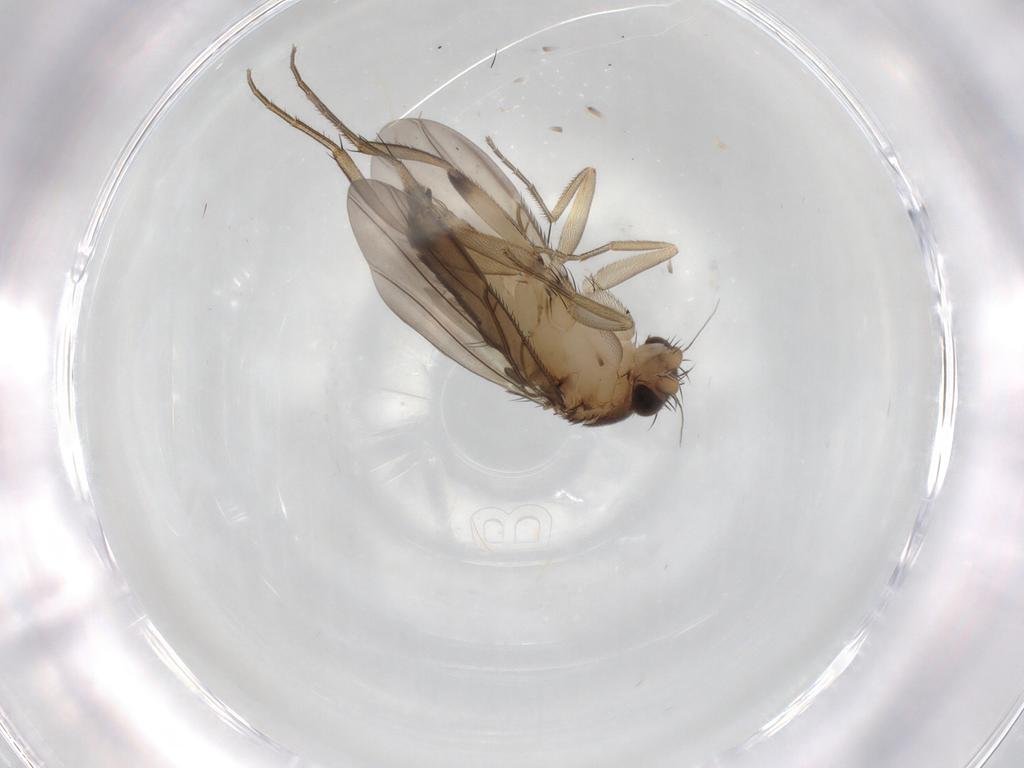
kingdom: Animalia
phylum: Arthropoda
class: Insecta
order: Diptera
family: Phoridae
